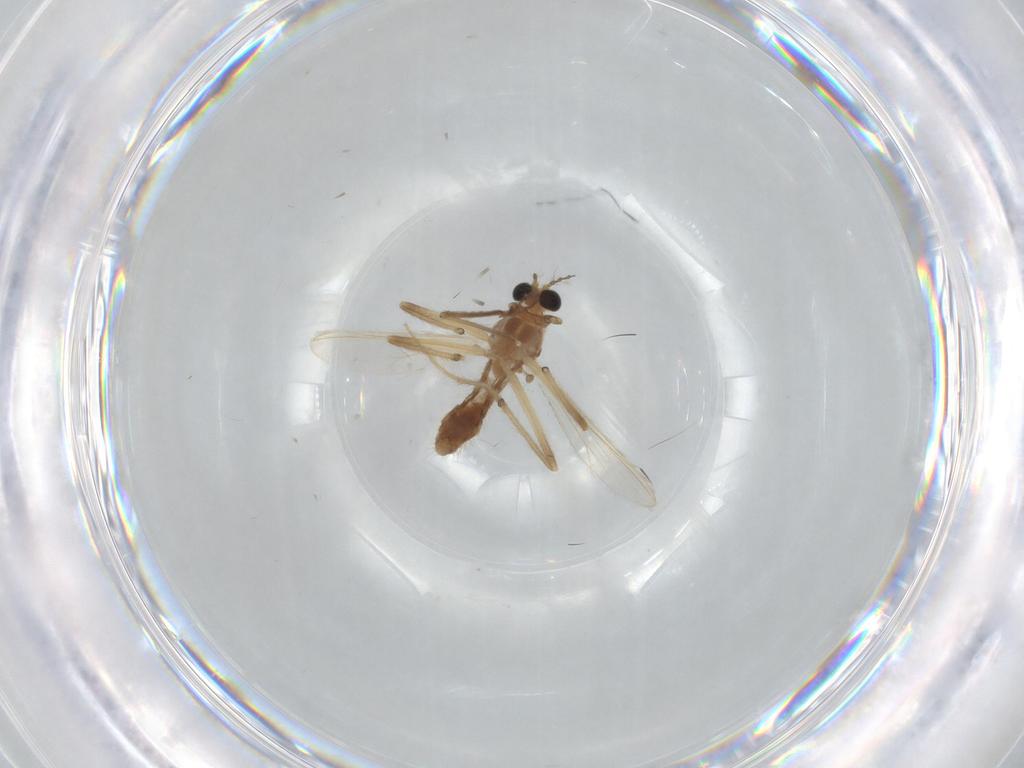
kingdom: Animalia
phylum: Arthropoda
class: Insecta
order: Diptera
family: Chironomidae
